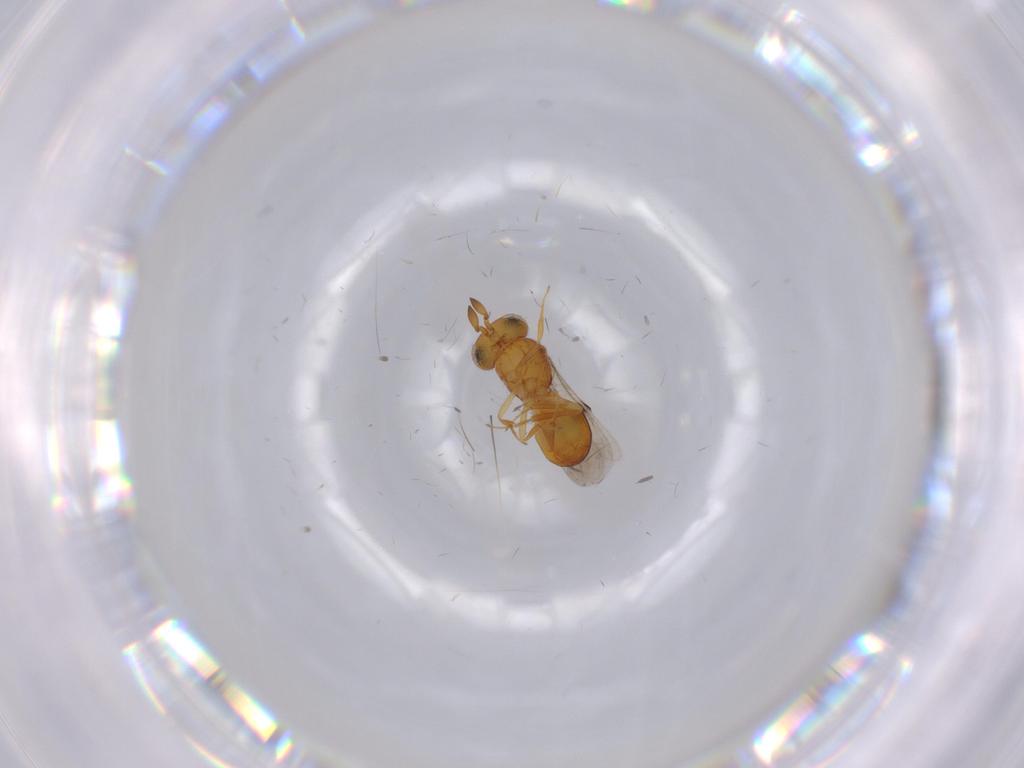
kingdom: Animalia
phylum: Arthropoda
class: Insecta
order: Hymenoptera
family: Scelionidae
